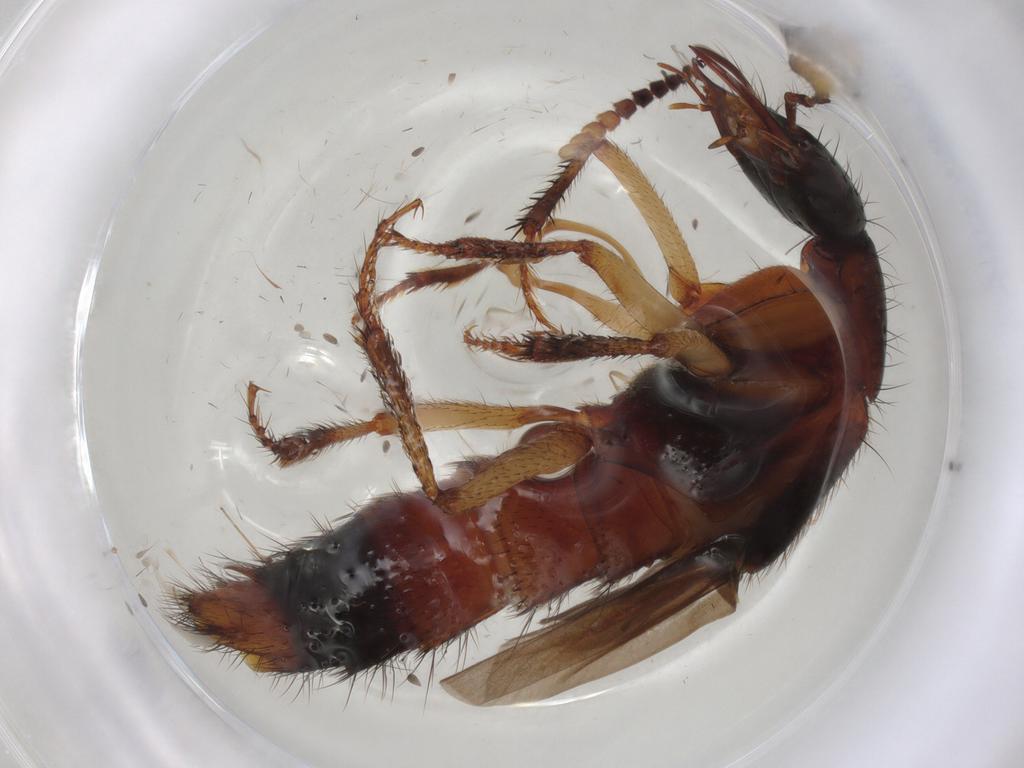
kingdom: Animalia
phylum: Arthropoda
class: Insecta
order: Coleoptera
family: Staphylinidae
